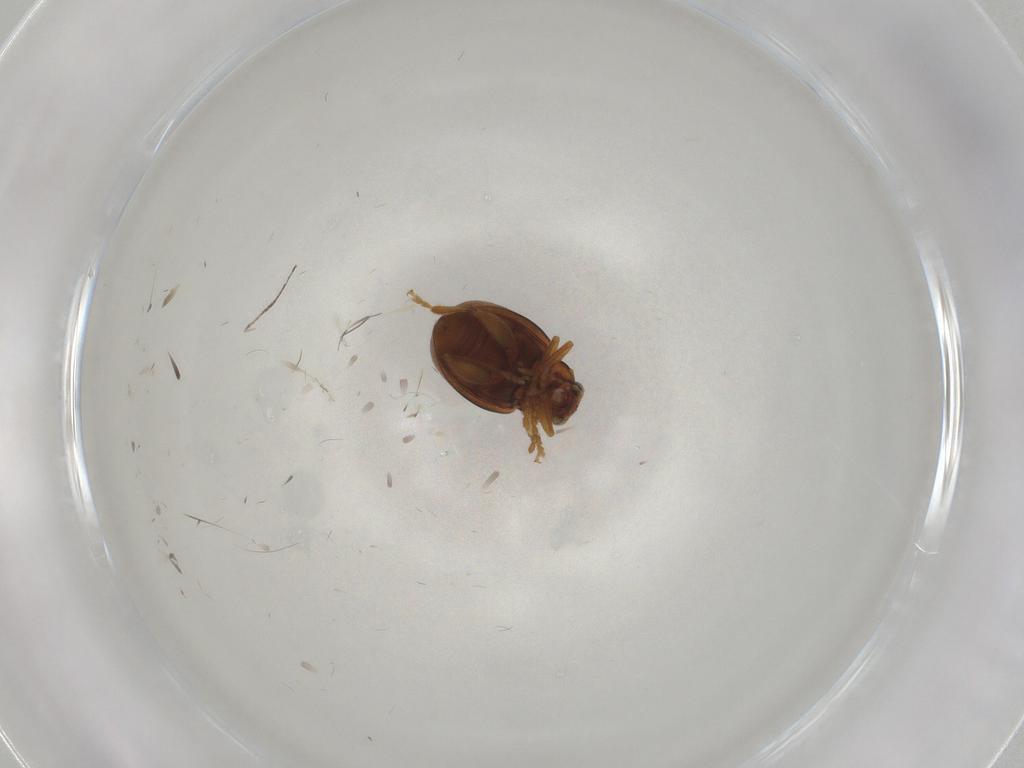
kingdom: Animalia
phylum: Arthropoda
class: Insecta
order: Coleoptera
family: Chrysomelidae
